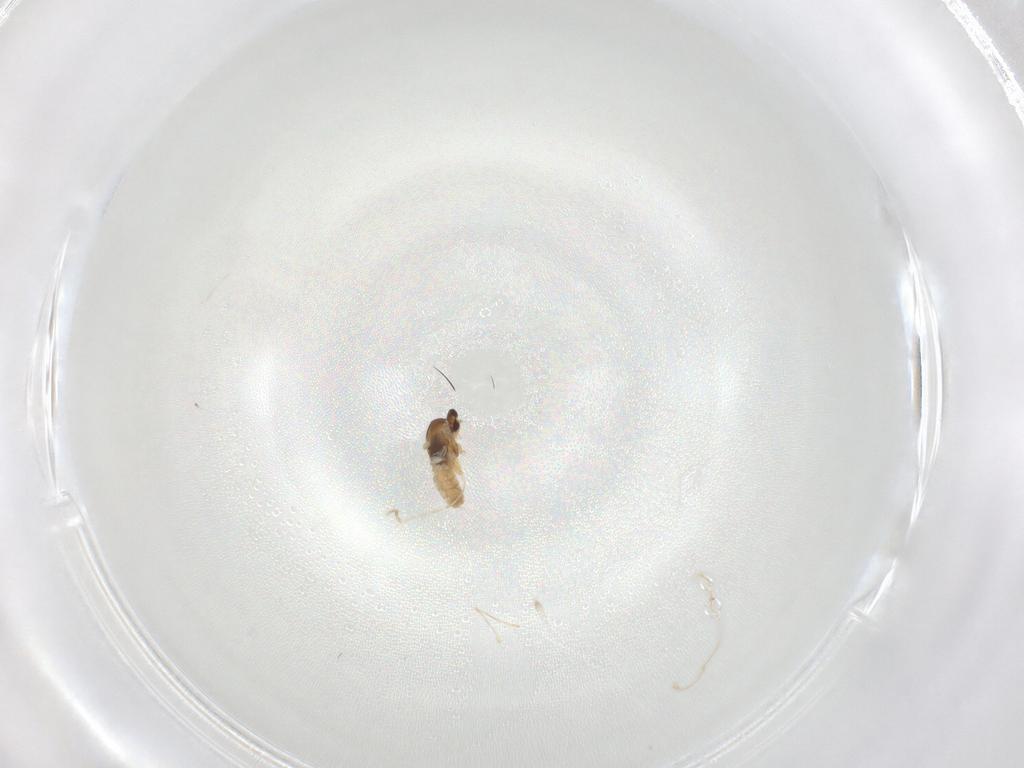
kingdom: Animalia
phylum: Arthropoda
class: Insecta
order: Diptera
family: Cecidomyiidae
